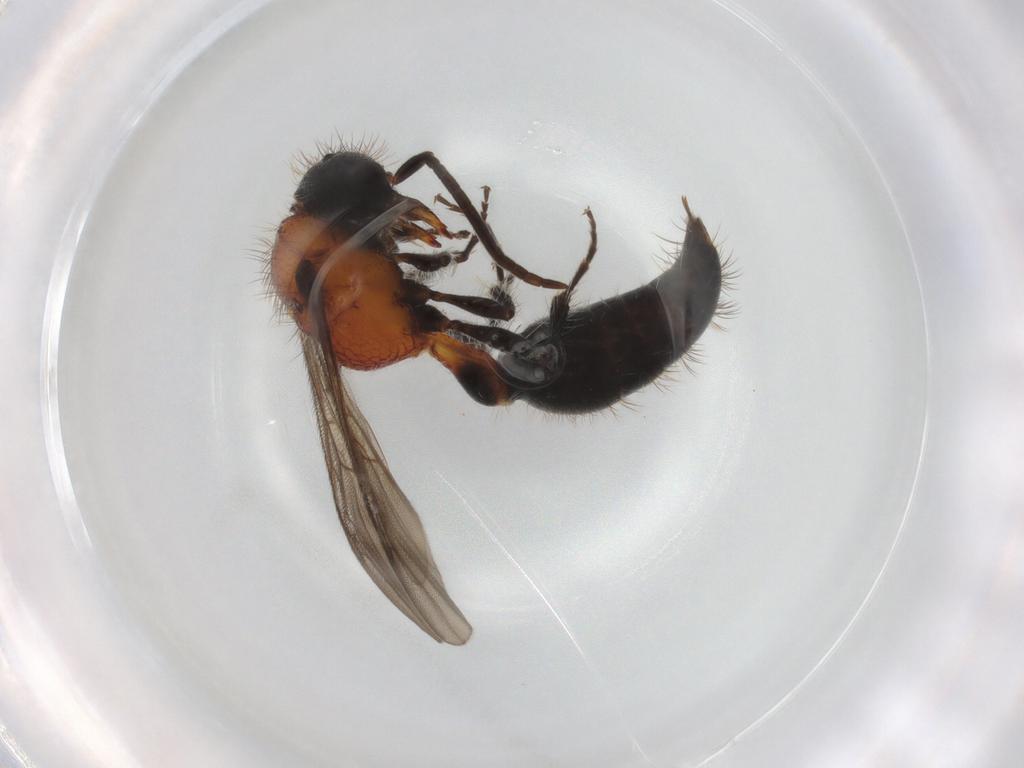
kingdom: Animalia
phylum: Arthropoda
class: Insecta
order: Hymenoptera
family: Mutillidae
